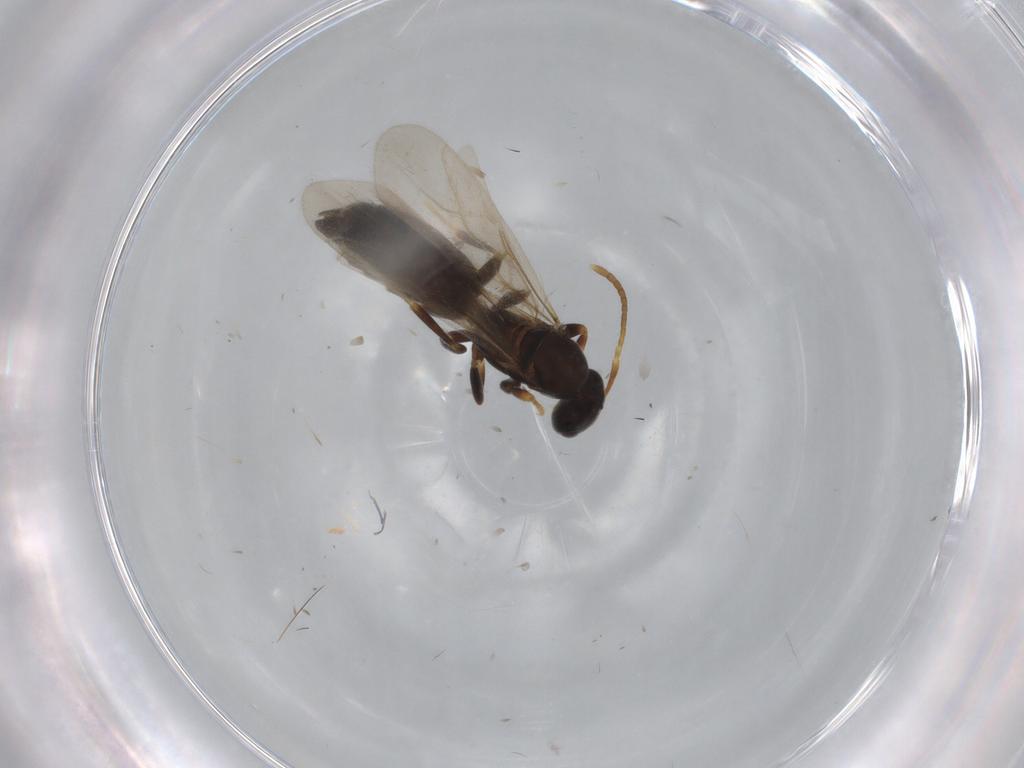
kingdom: Animalia
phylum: Arthropoda
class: Insecta
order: Hymenoptera
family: Formicidae
